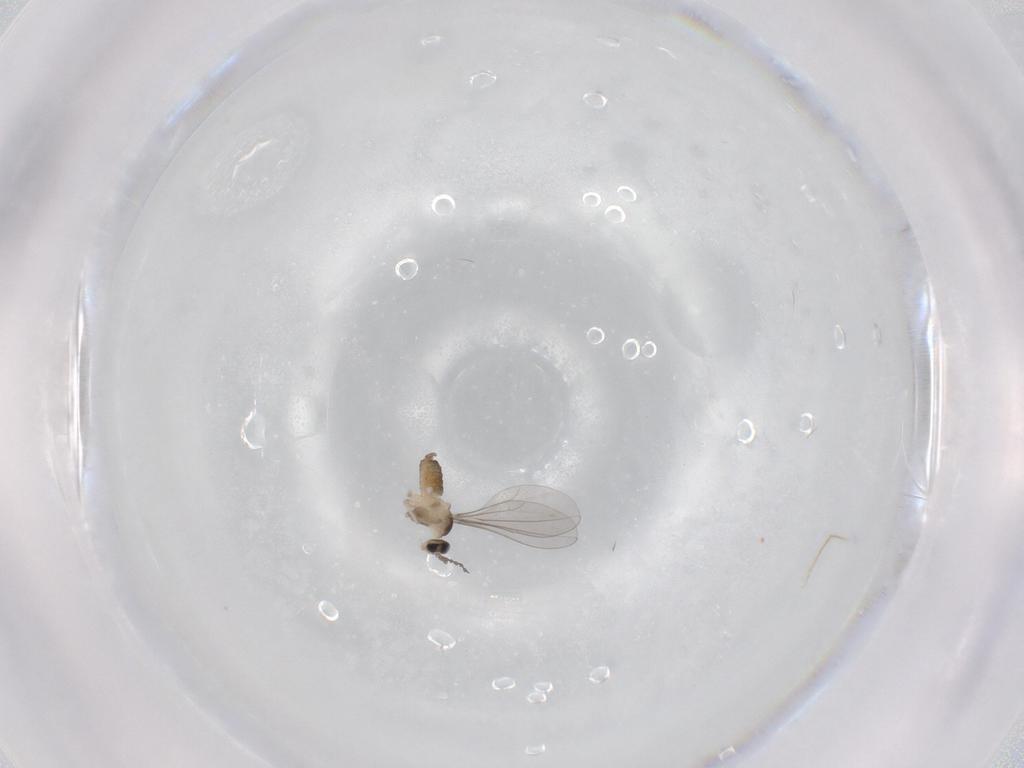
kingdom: Animalia
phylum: Arthropoda
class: Insecta
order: Diptera
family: Cecidomyiidae
